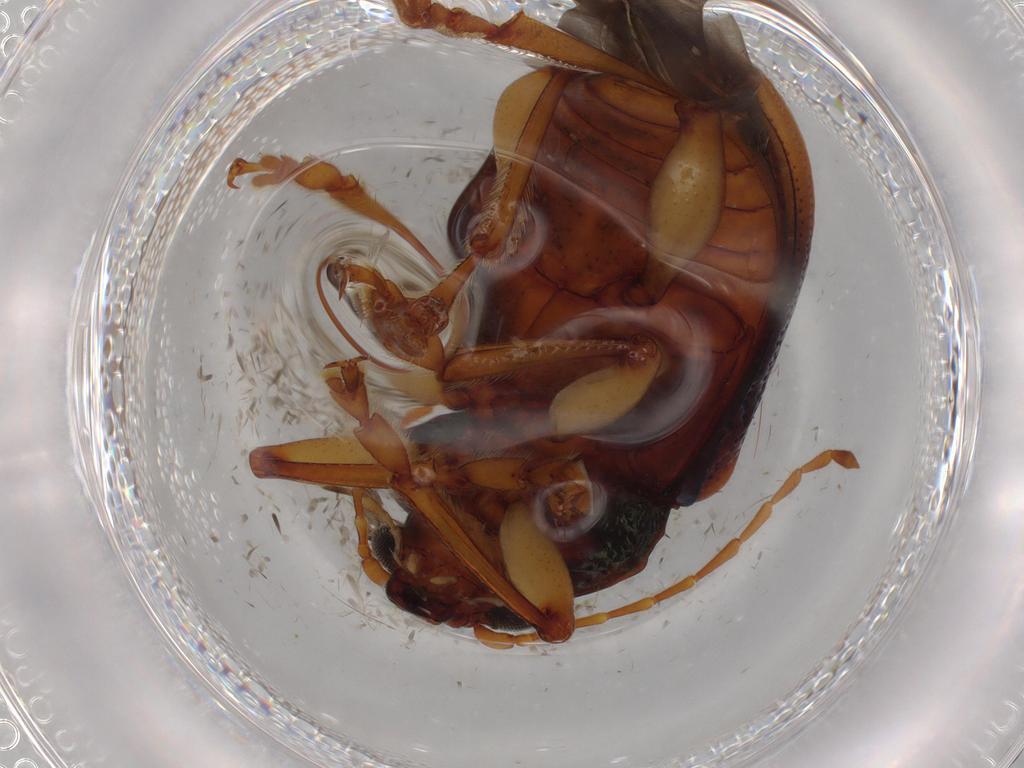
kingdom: Animalia
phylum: Arthropoda
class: Insecta
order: Coleoptera
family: Chrysomelidae
